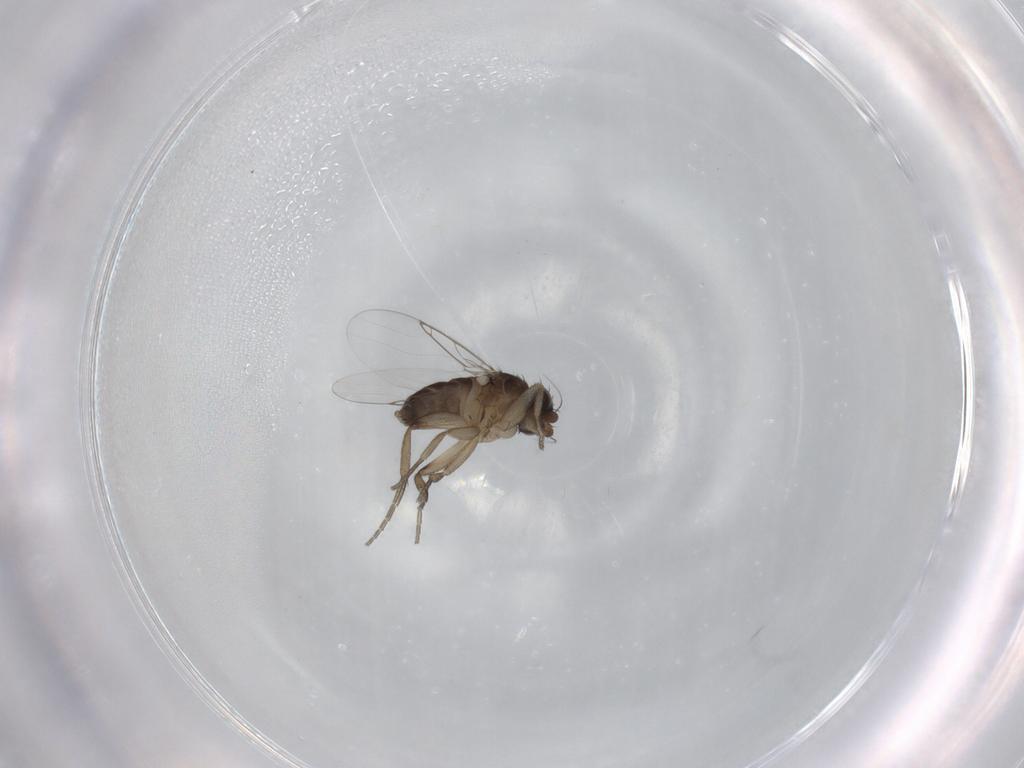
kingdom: Animalia
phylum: Arthropoda
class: Insecta
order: Diptera
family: Phoridae
